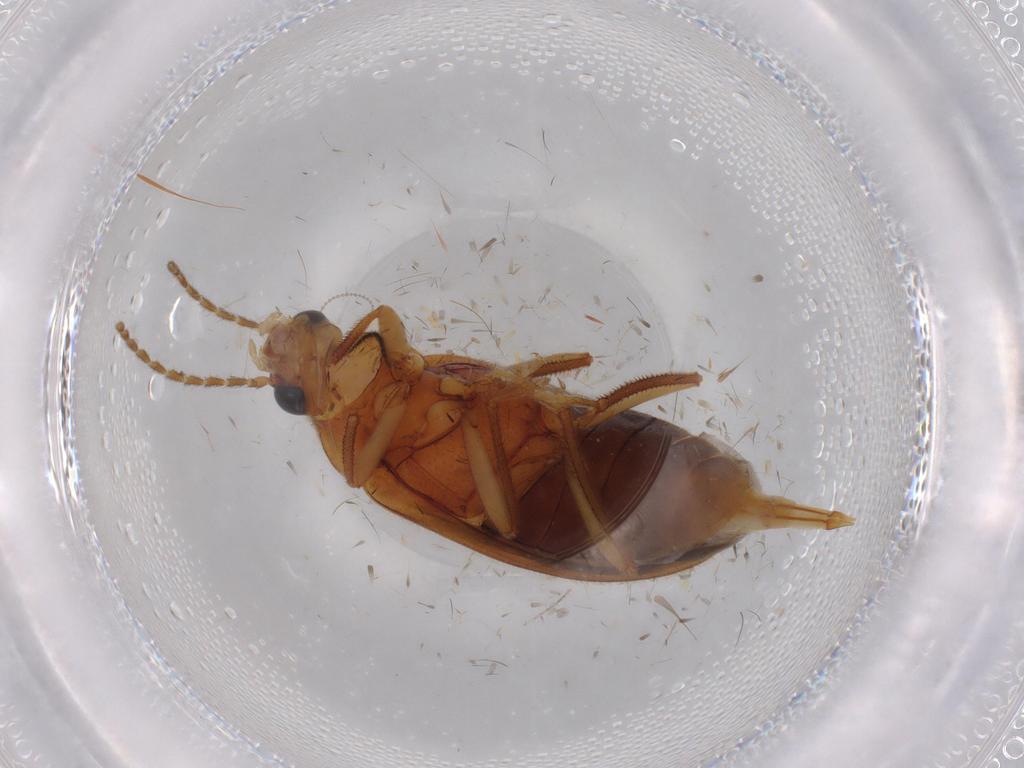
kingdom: Animalia
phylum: Arthropoda
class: Insecta
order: Coleoptera
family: Ptilodactylidae
